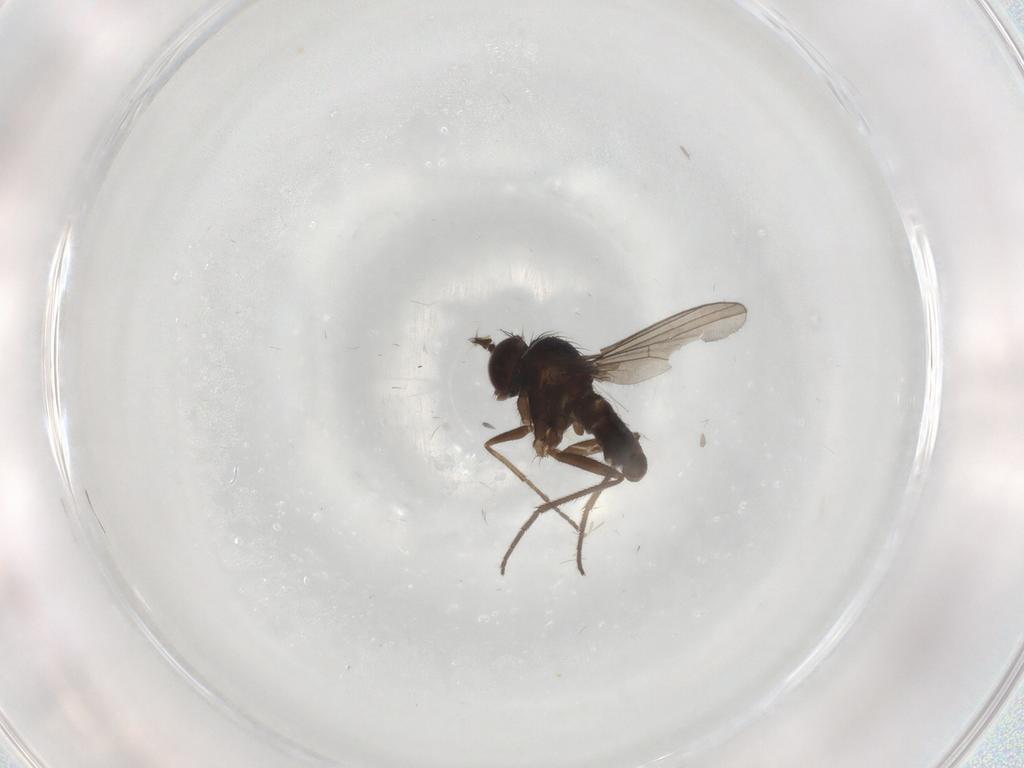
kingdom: Animalia
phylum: Arthropoda
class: Insecta
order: Diptera
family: Dolichopodidae
